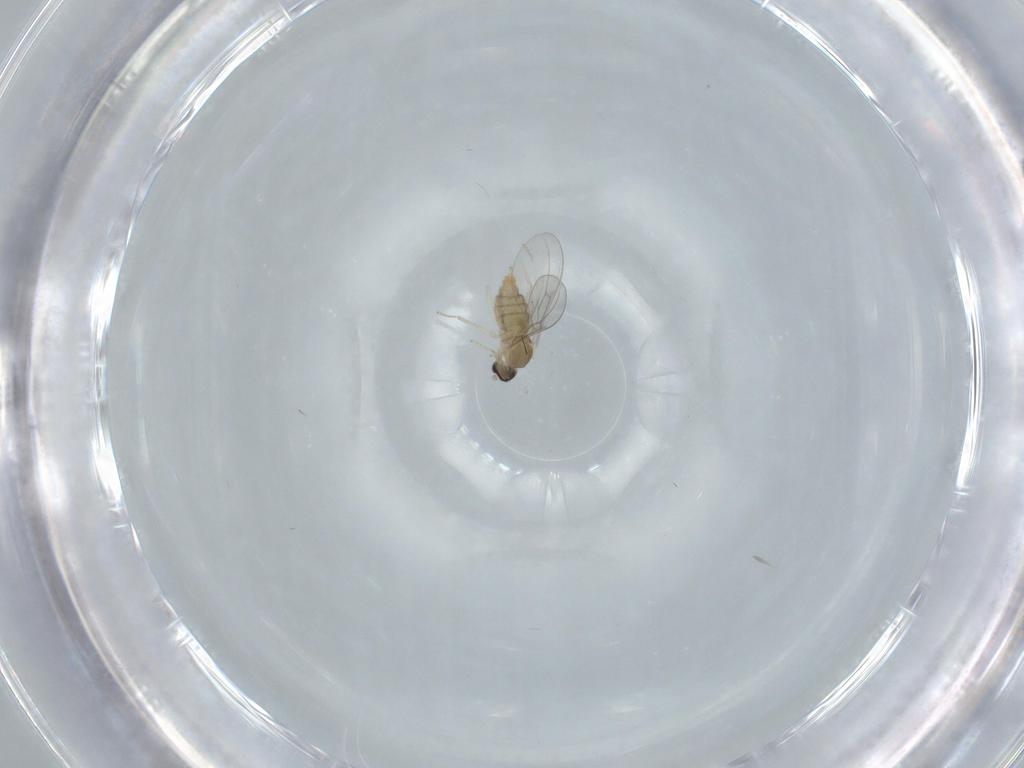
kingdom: Animalia
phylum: Arthropoda
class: Insecta
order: Diptera
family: Cecidomyiidae
